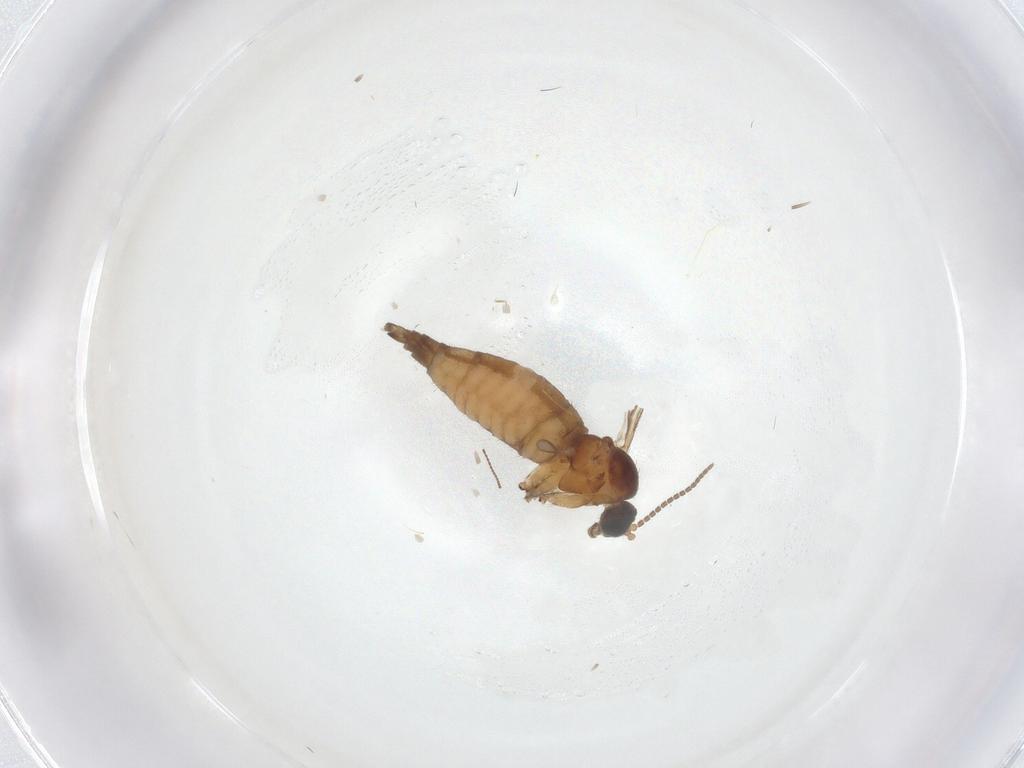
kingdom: Animalia
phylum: Arthropoda
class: Insecta
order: Diptera
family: Sciaridae
